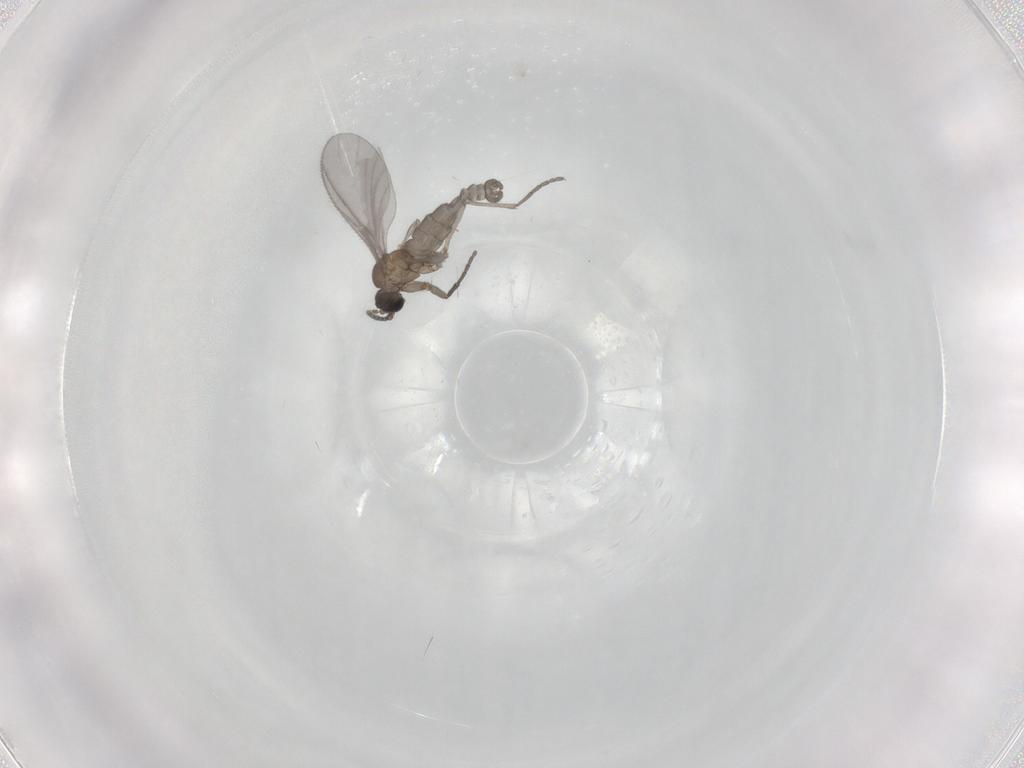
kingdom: Animalia
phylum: Arthropoda
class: Insecta
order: Diptera
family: Sciaridae
